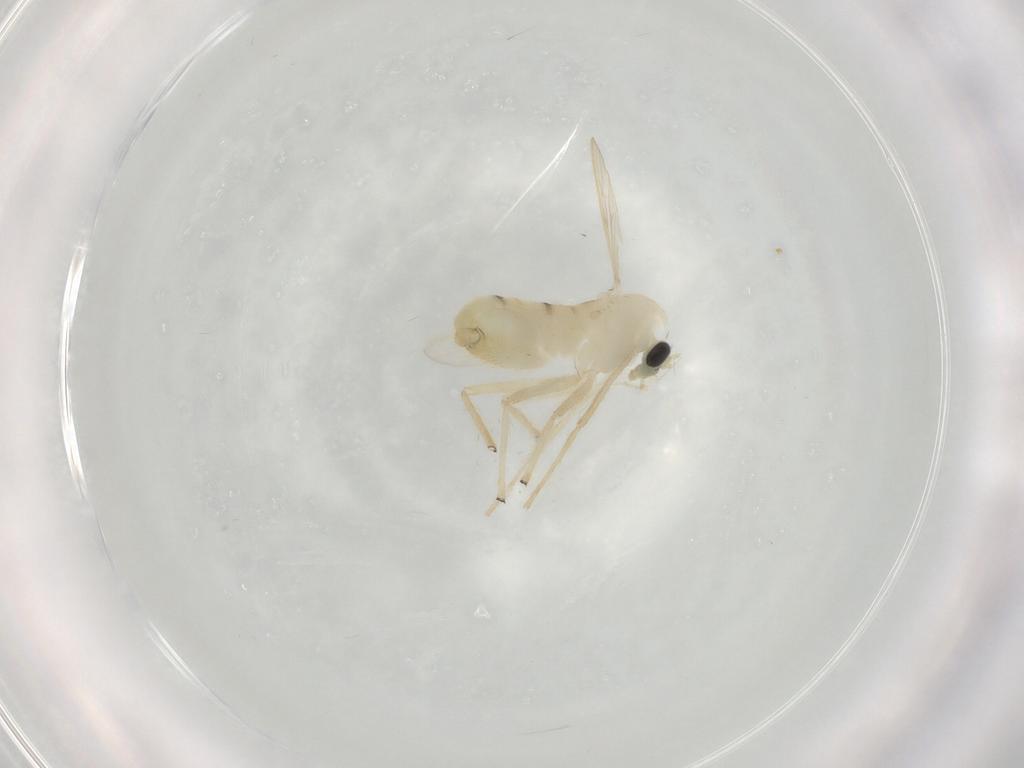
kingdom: Animalia
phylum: Arthropoda
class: Insecta
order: Diptera
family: Chironomidae
